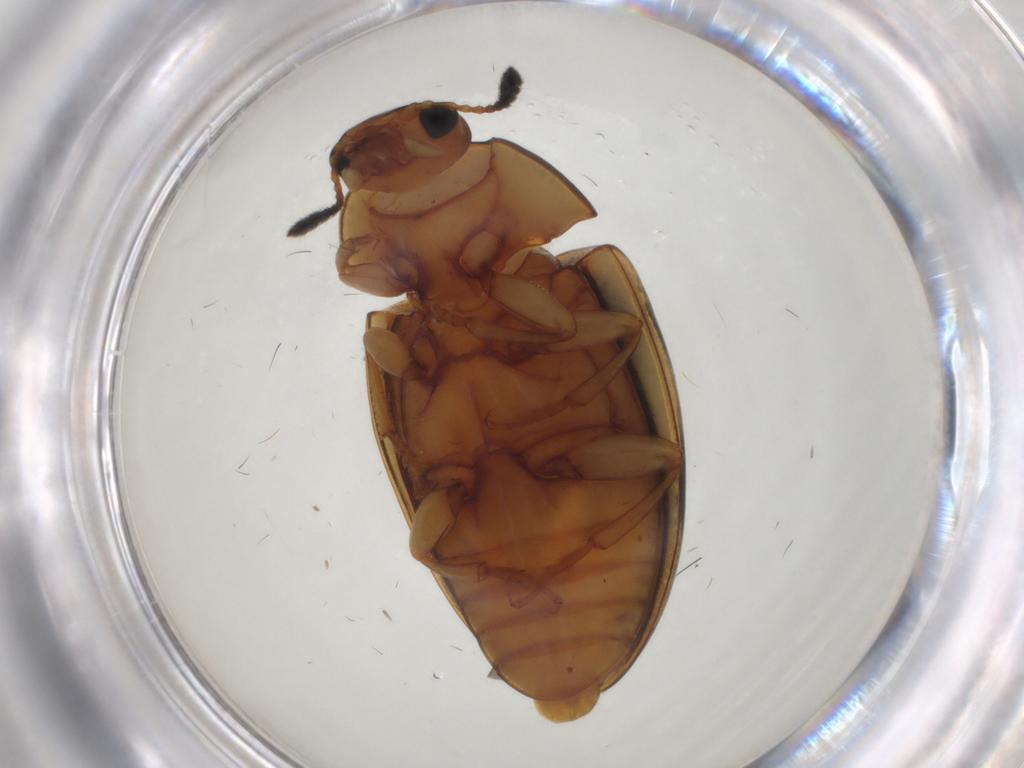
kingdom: Animalia
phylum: Arthropoda
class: Insecta
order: Coleoptera
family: Erotylidae
